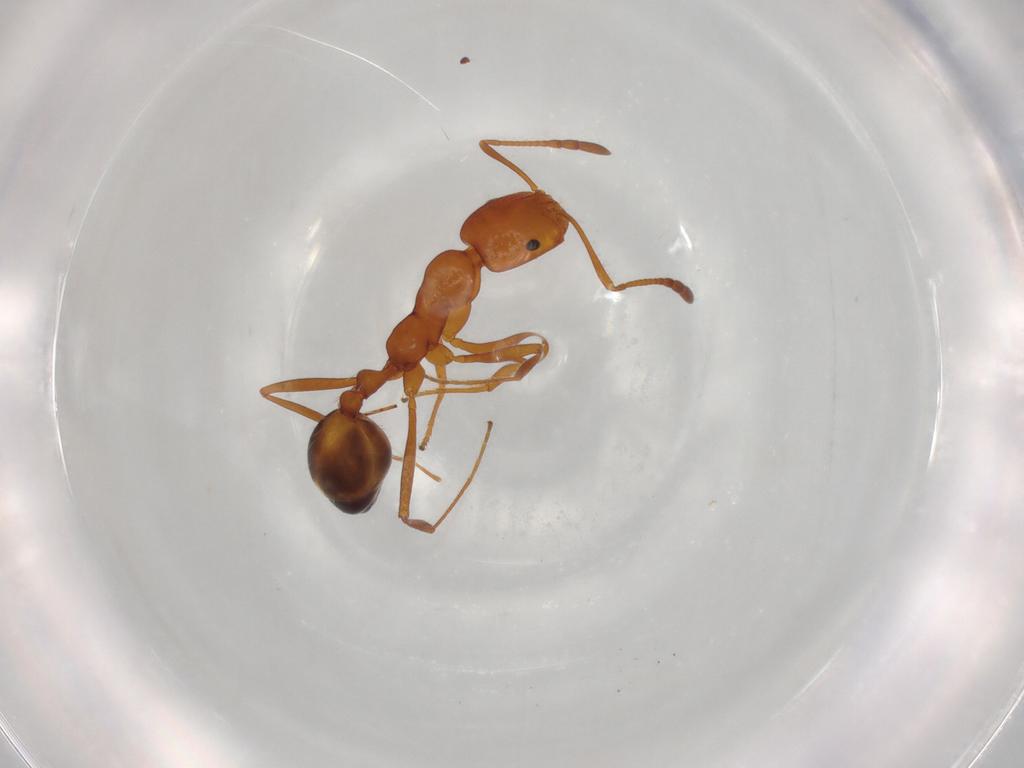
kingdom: Animalia
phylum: Arthropoda
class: Insecta
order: Hymenoptera
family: Formicidae
